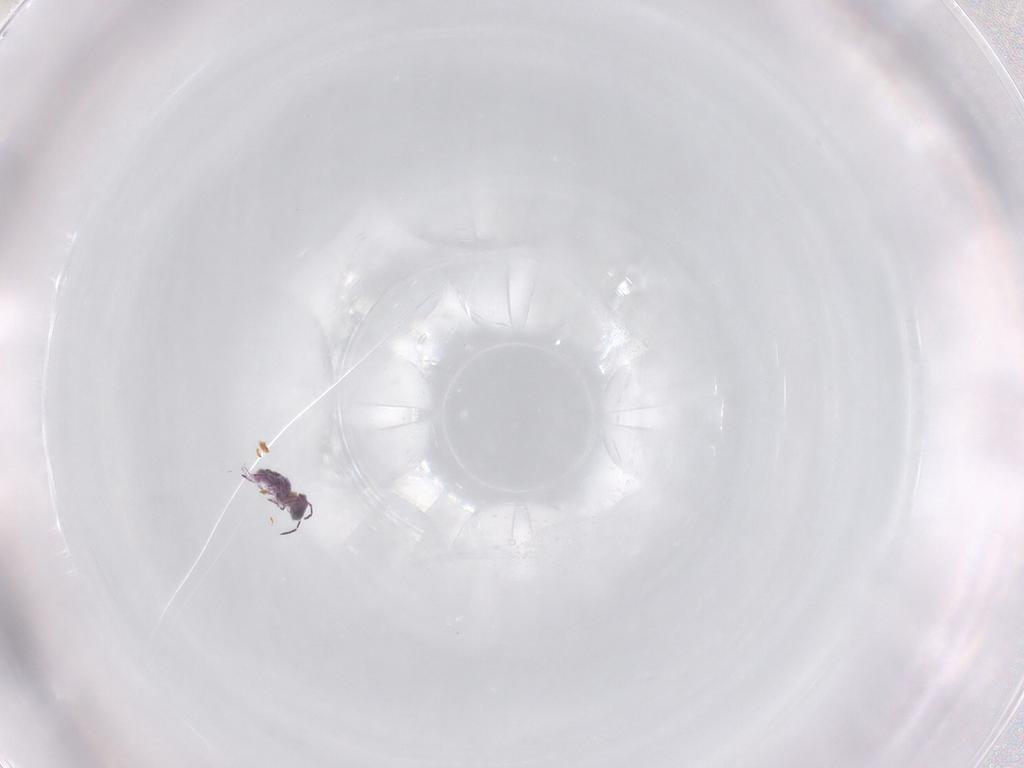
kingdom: Animalia
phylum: Arthropoda
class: Collembola
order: Symphypleona
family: Sminthurididae
